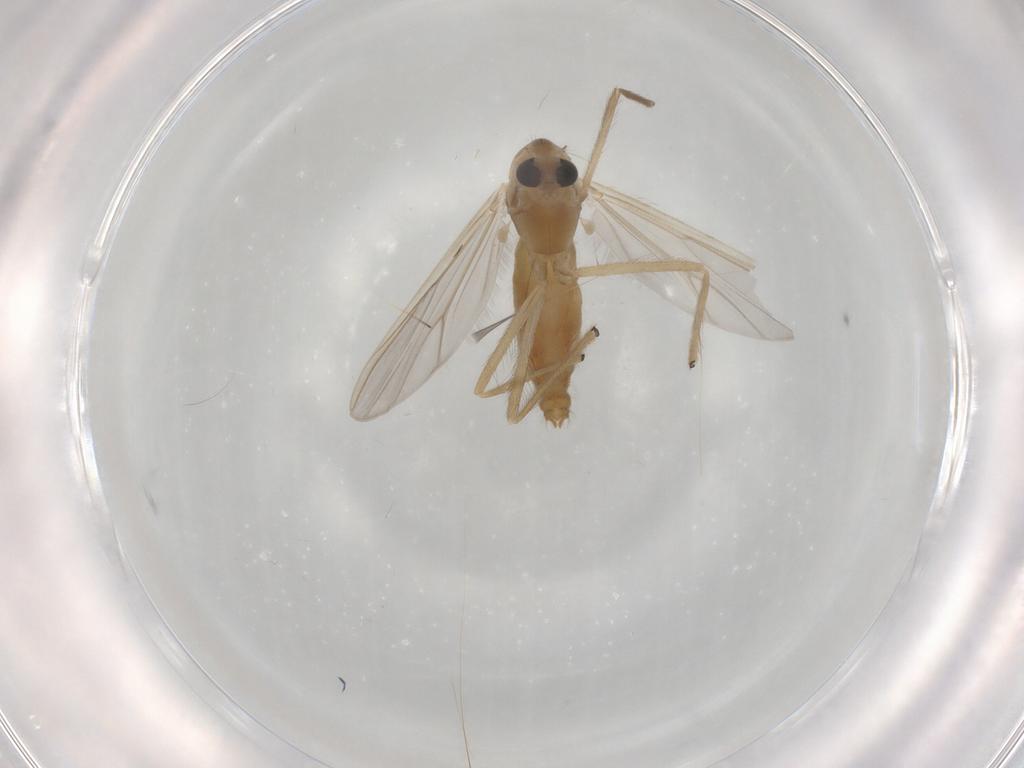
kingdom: Animalia
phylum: Arthropoda
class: Insecta
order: Diptera
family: Chironomidae
